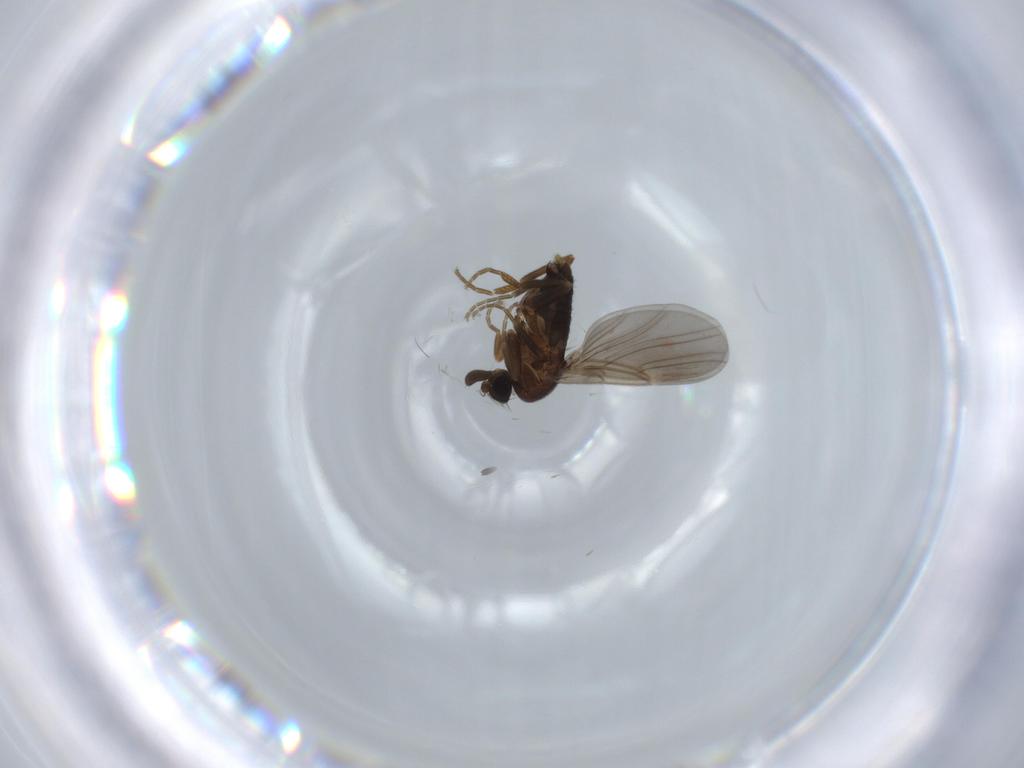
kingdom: Animalia
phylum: Arthropoda
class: Insecta
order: Diptera
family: Phoridae
